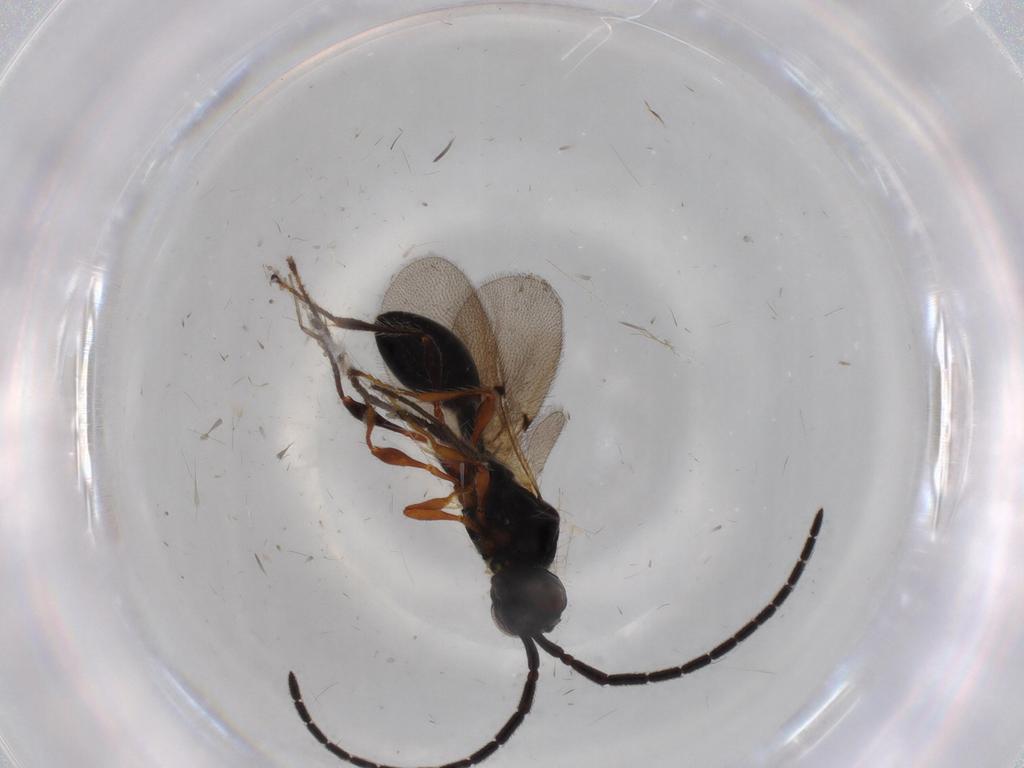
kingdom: Animalia
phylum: Arthropoda
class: Insecta
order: Hymenoptera
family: Diapriidae
